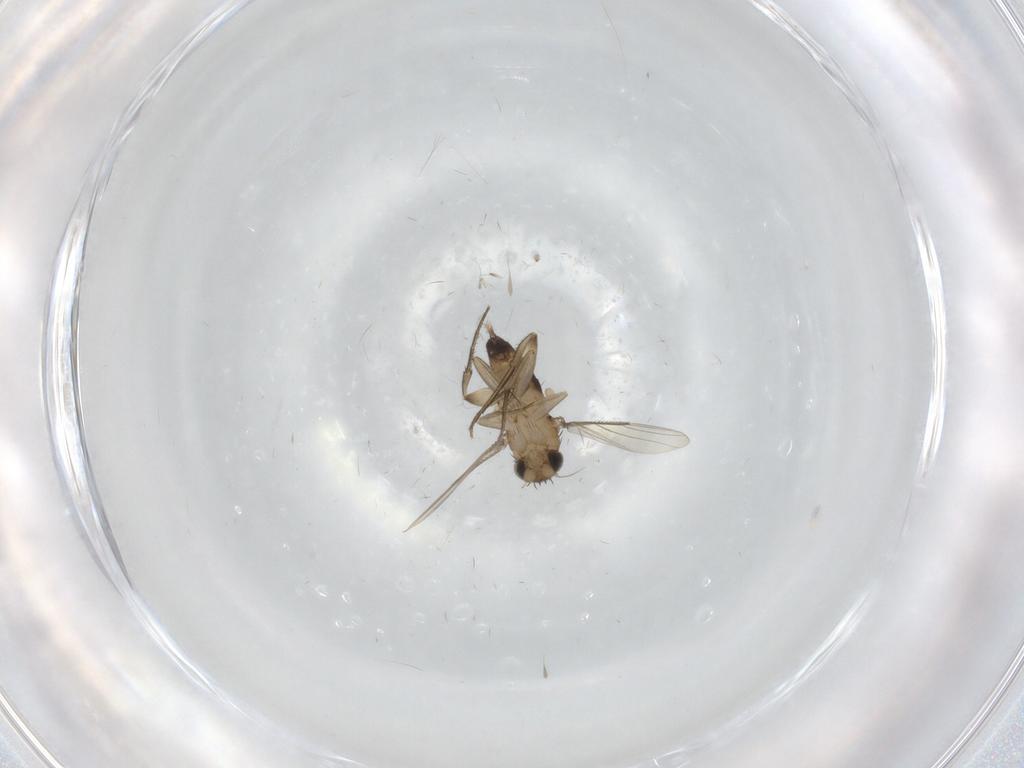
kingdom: Animalia
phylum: Arthropoda
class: Insecta
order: Diptera
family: Phoridae
